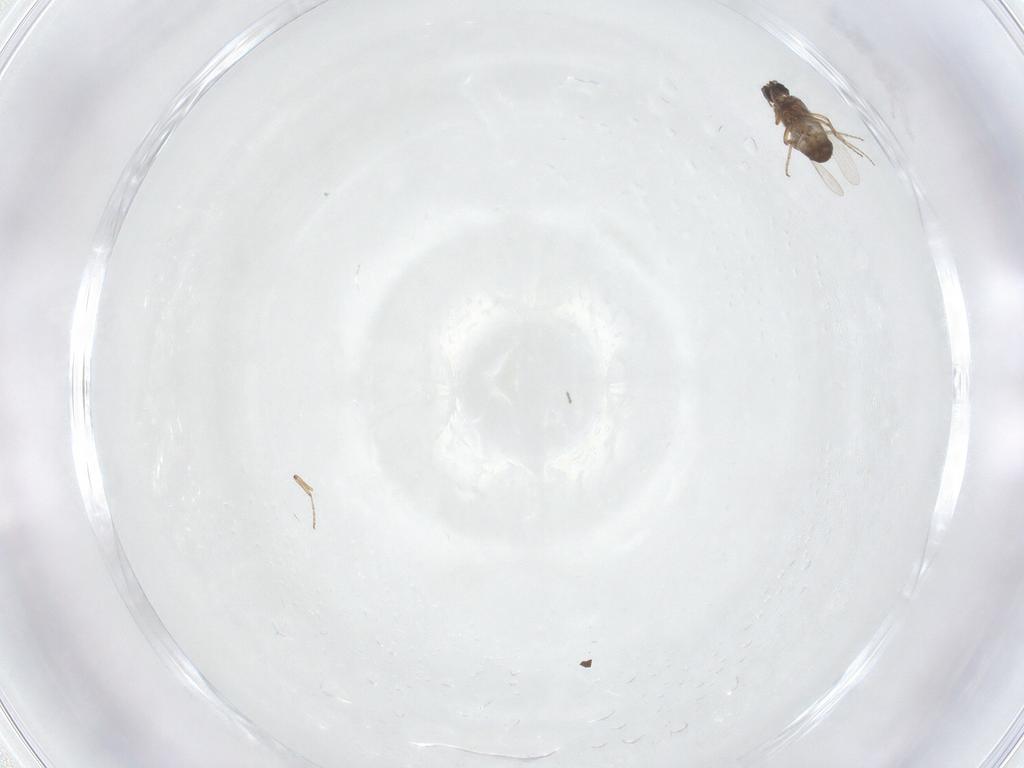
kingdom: Animalia
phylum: Arthropoda
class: Insecta
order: Diptera
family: Ceratopogonidae
